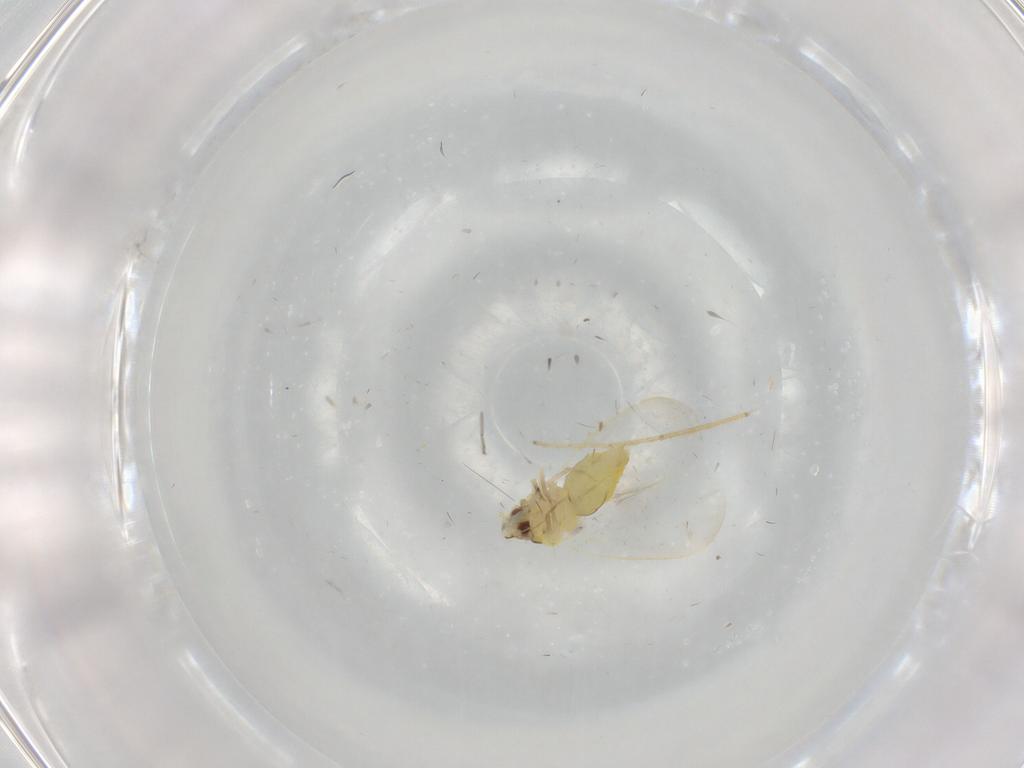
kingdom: Animalia
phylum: Arthropoda
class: Insecta
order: Hemiptera
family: Aleyrodidae
